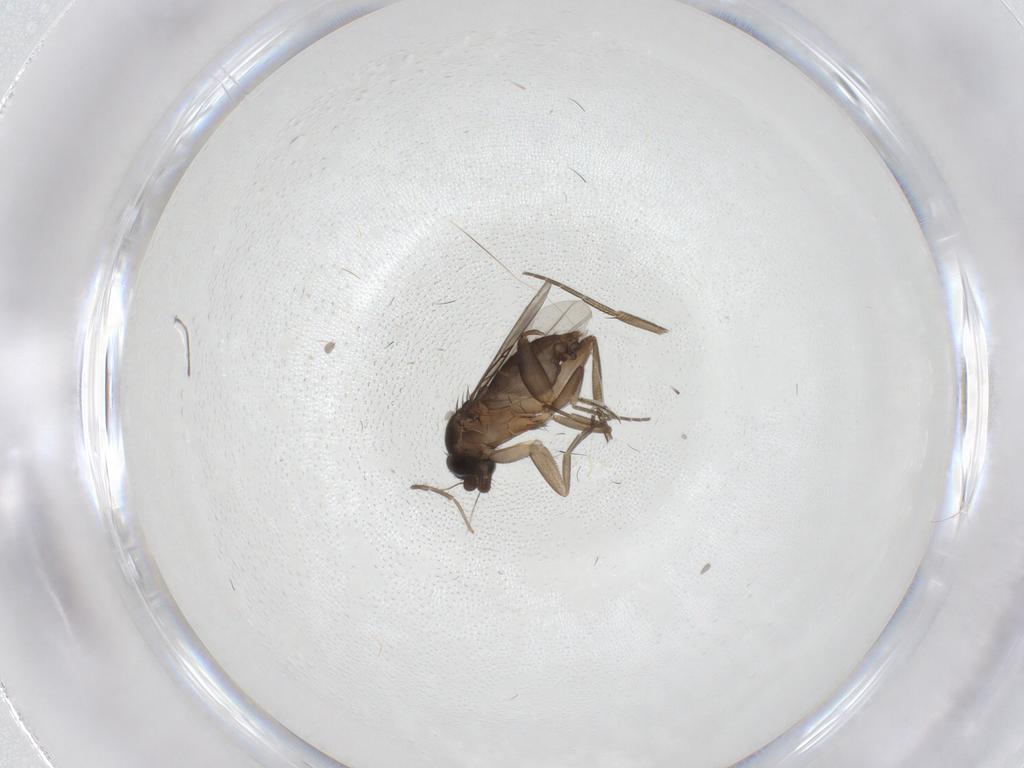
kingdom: Animalia
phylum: Arthropoda
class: Insecta
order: Diptera
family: Phoridae
